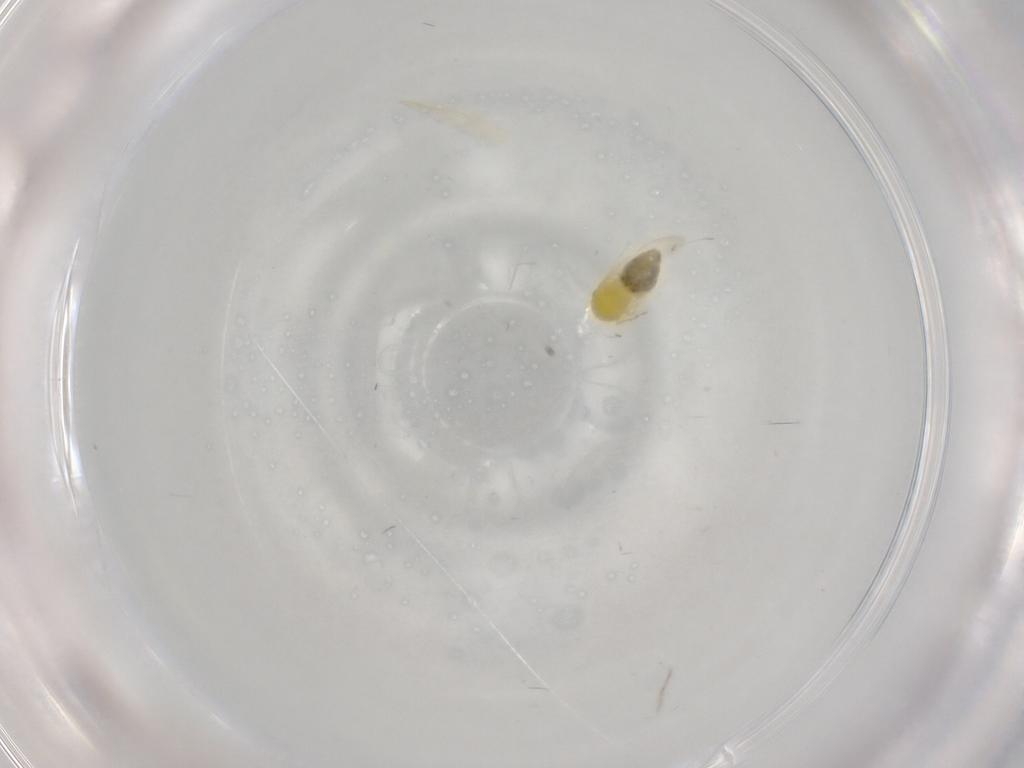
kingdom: Animalia
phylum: Arthropoda
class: Insecta
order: Hemiptera
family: Aleyrodidae
